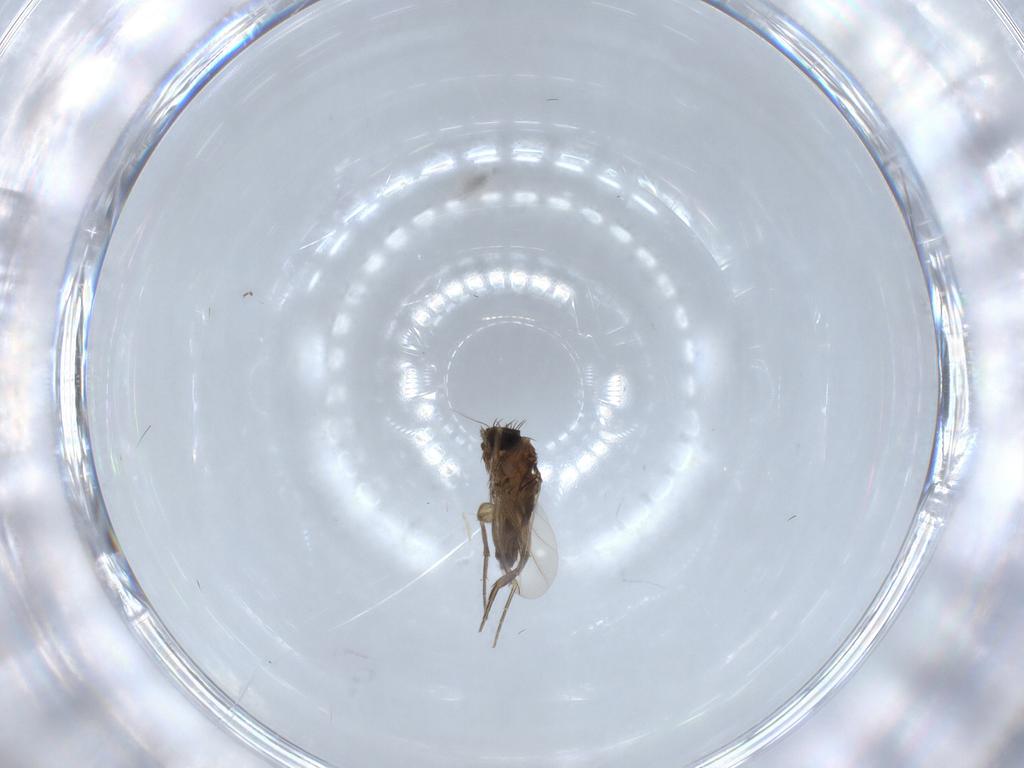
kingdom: Animalia
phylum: Arthropoda
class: Insecta
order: Diptera
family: Phoridae
